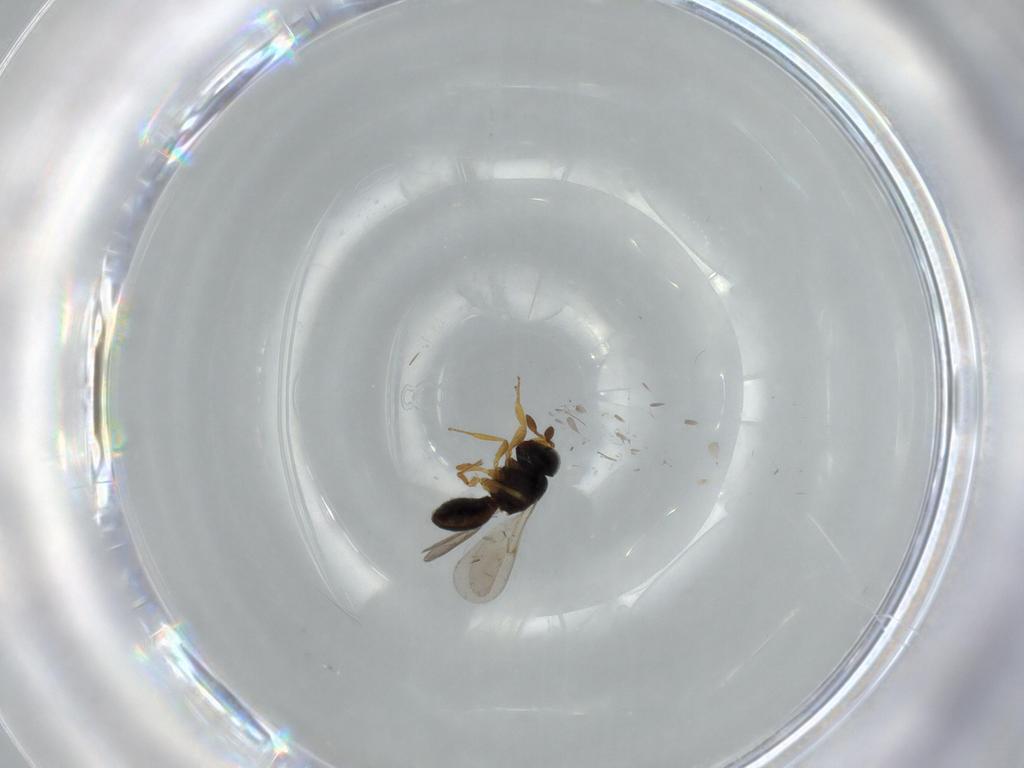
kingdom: Animalia
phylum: Arthropoda
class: Insecta
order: Hymenoptera
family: Scelionidae
